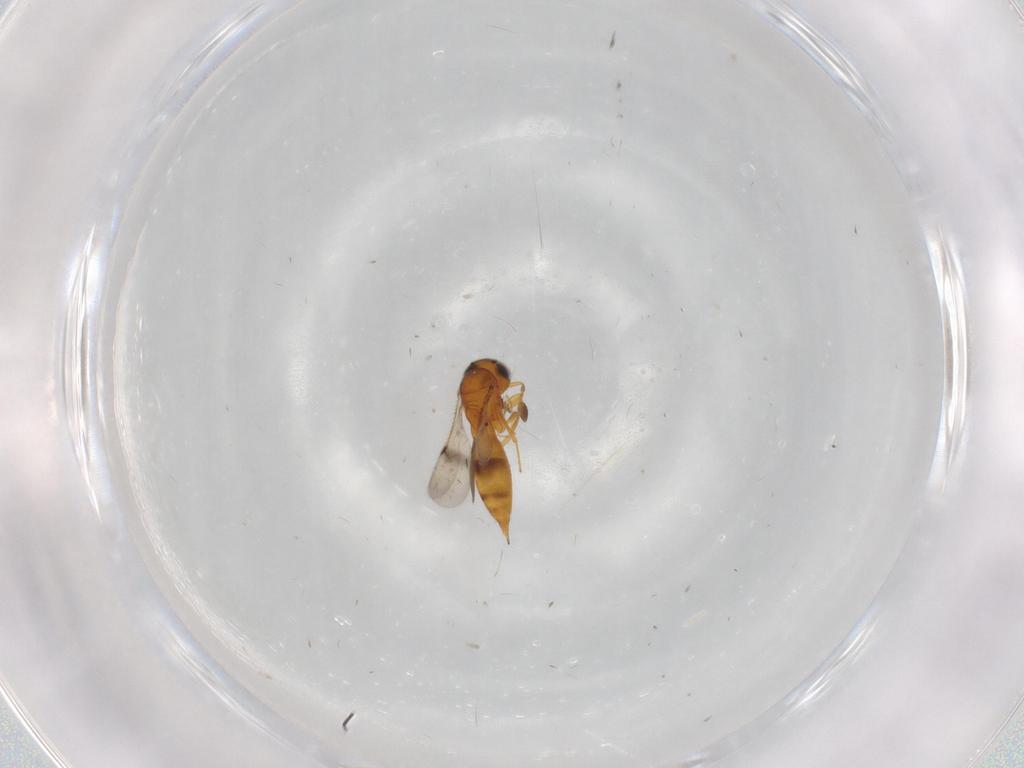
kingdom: Animalia
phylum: Arthropoda
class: Insecta
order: Hymenoptera
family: Scelionidae
